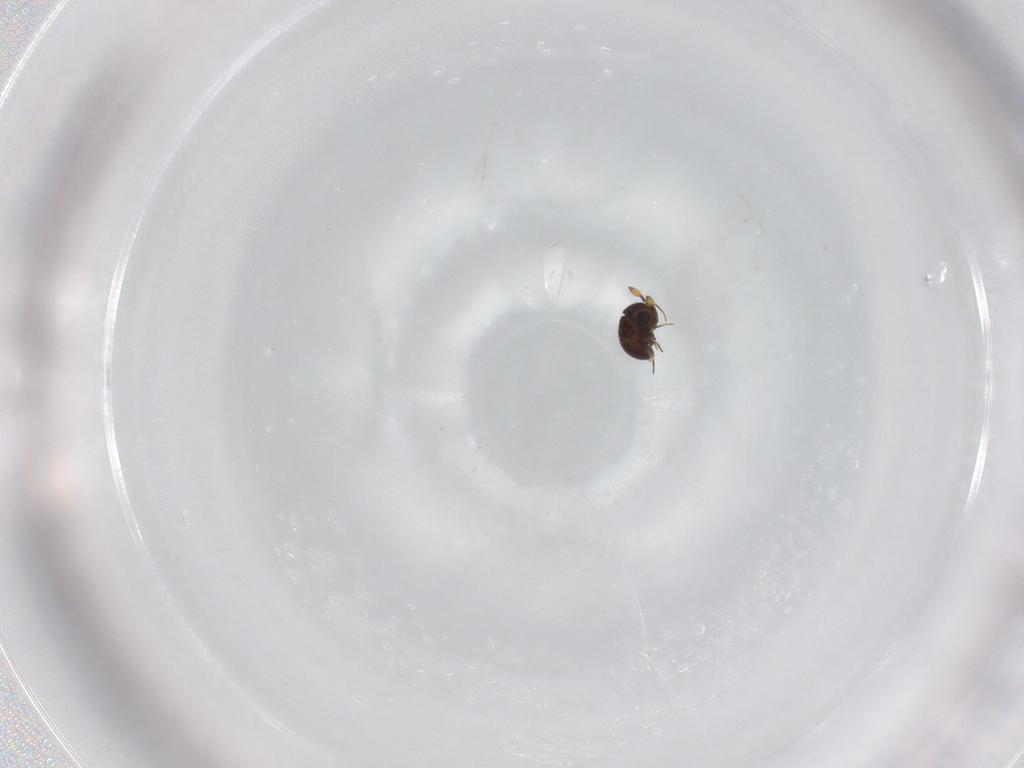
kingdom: Animalia
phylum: Arthropoda
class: Insecta
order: Hymenoptera
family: Scelionidae
